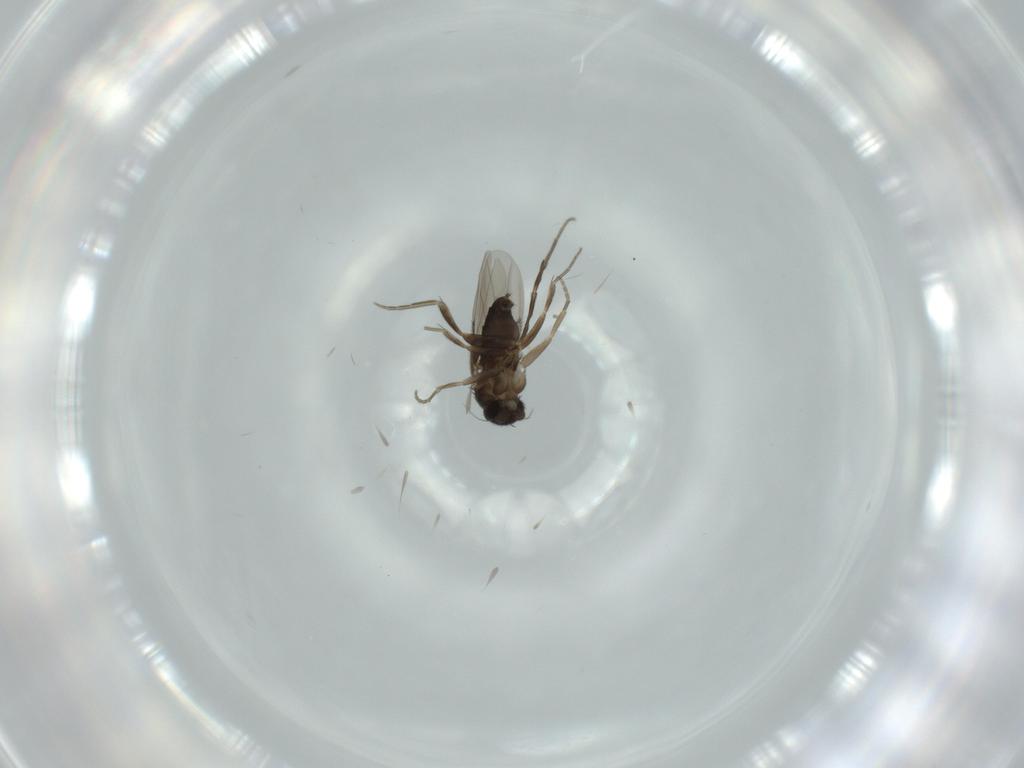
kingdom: Animalia
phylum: Arthropoda
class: Insecta
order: Diptera
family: Phoridae
